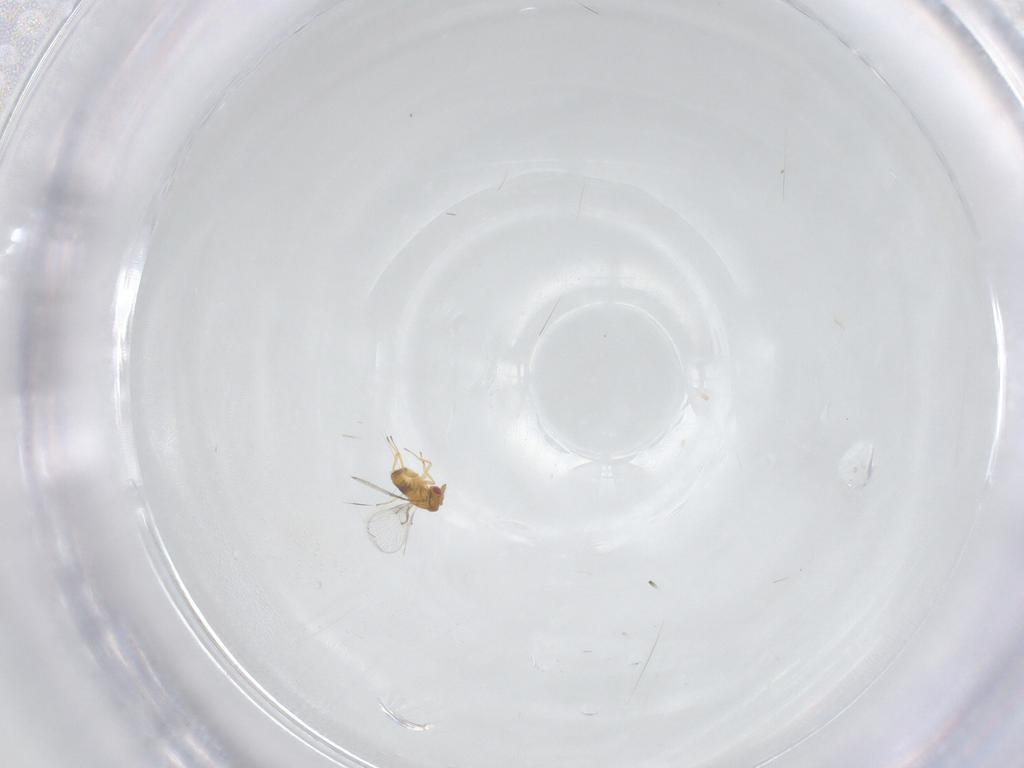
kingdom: Animalia
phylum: Arthropoda
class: Insecta
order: Hymenoptera
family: Trichogrammatidae
